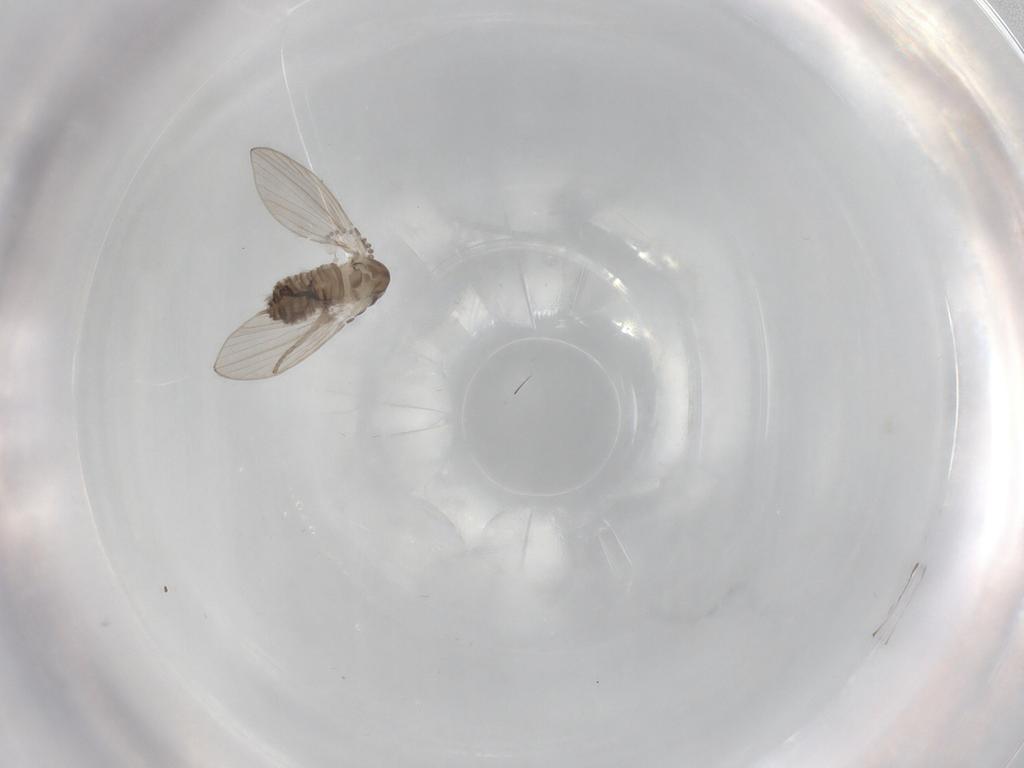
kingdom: Animalia
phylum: Arthropoda
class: Insecta
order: Diptera
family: Psychodidae
